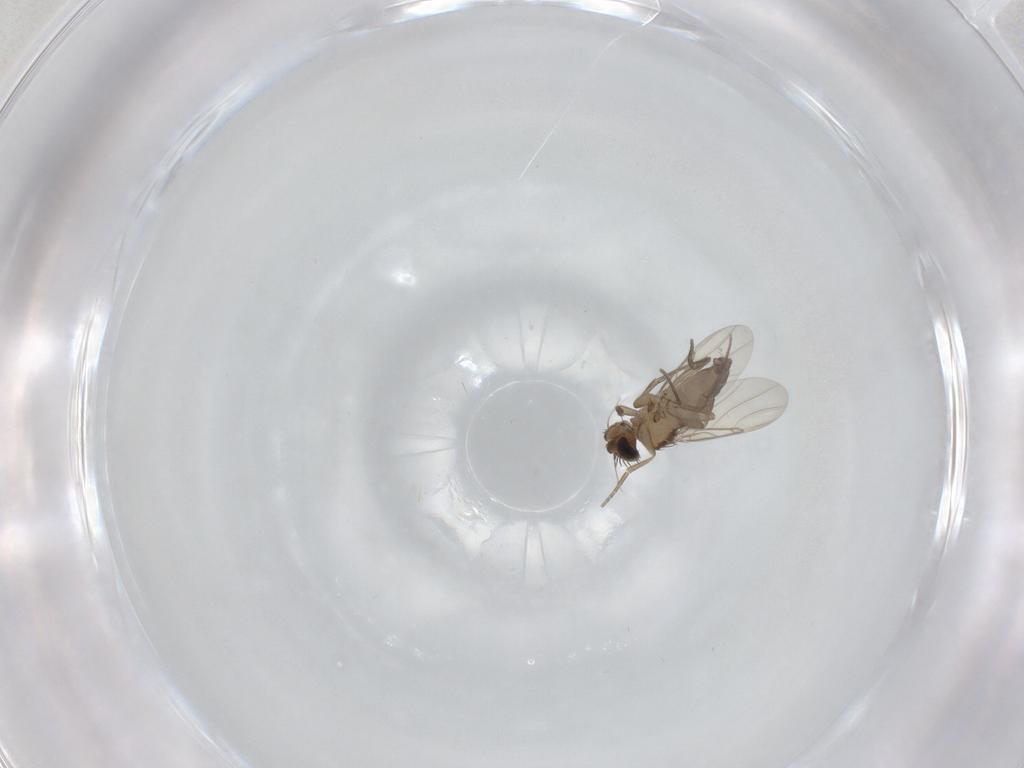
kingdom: Animalia
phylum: Arthropoda
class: Insecta
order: Diptera
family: Phoridae
